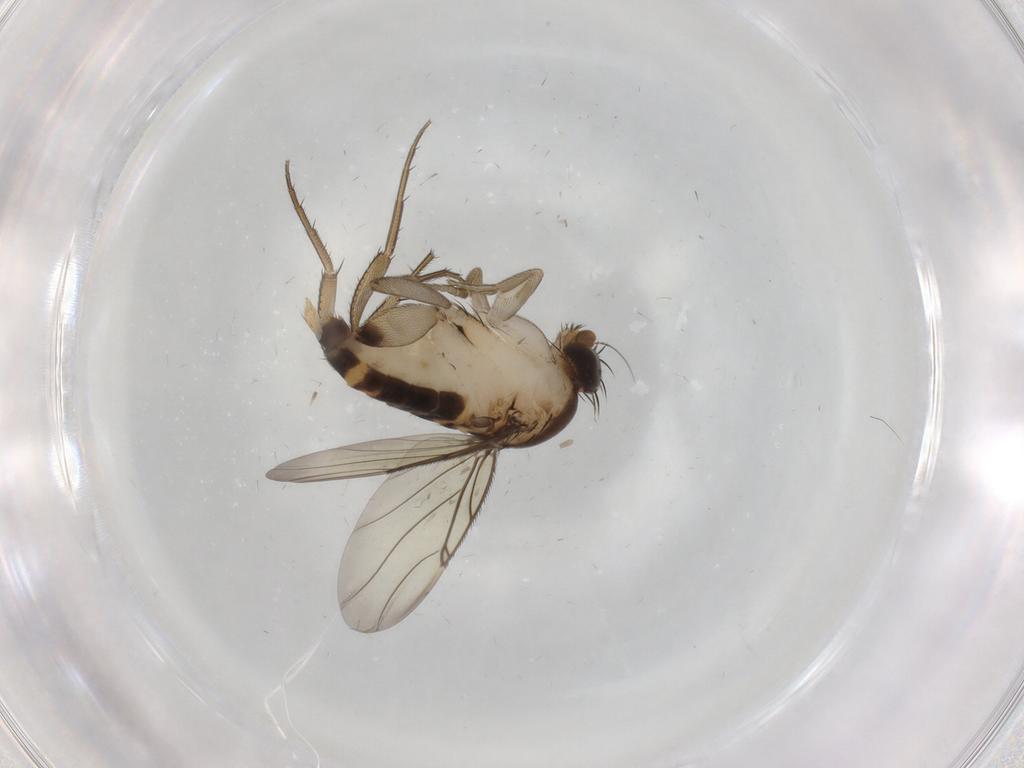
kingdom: Animalia
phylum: Arthropoda
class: Insecta
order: Diptera
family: Phoridae
